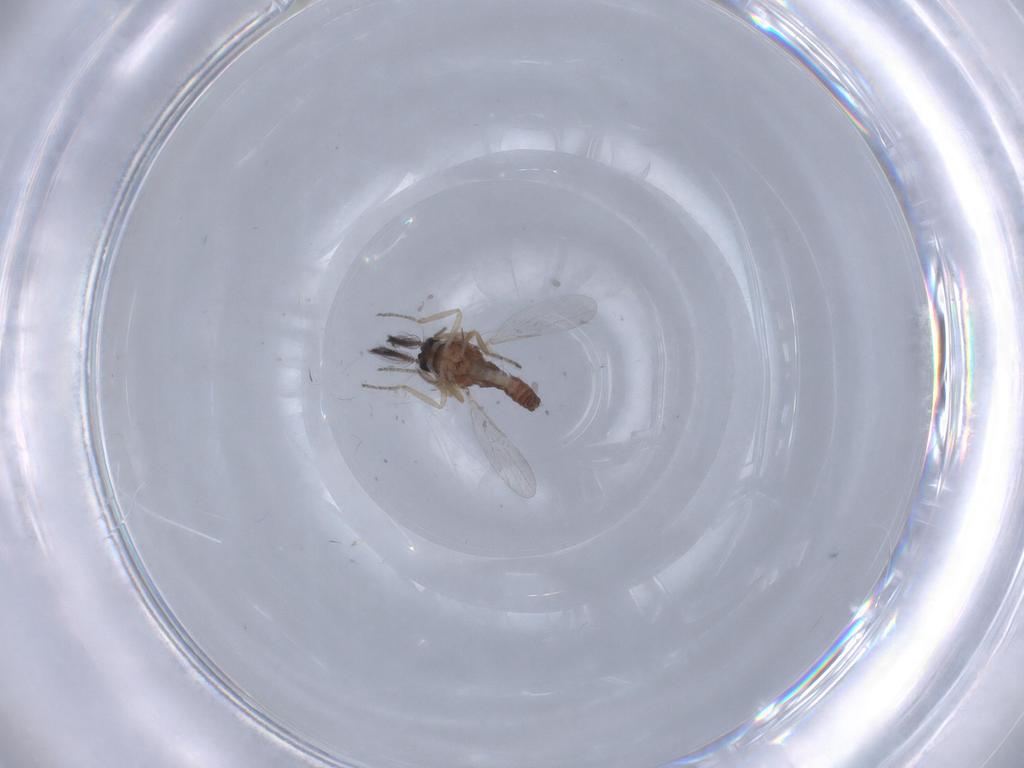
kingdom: Animalia
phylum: Arthropoda
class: Insecta
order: Diptera
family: Ceratopogonidae
